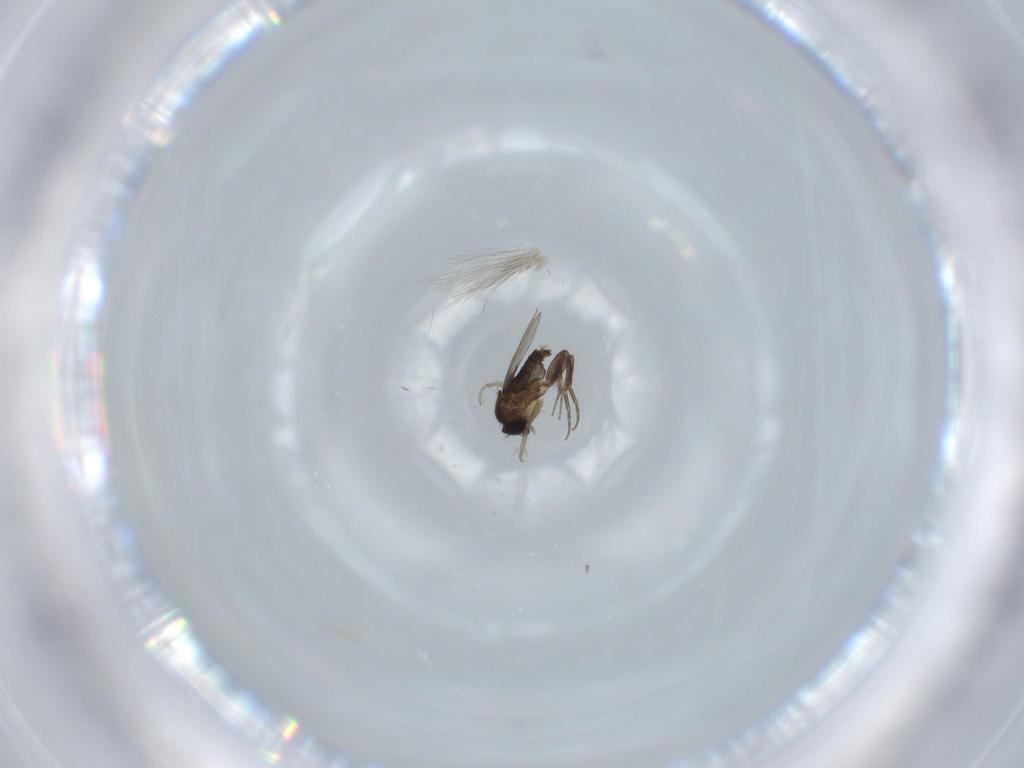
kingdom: Animalia
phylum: Arthropoda
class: Insecta
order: Diptera
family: Phoridae
